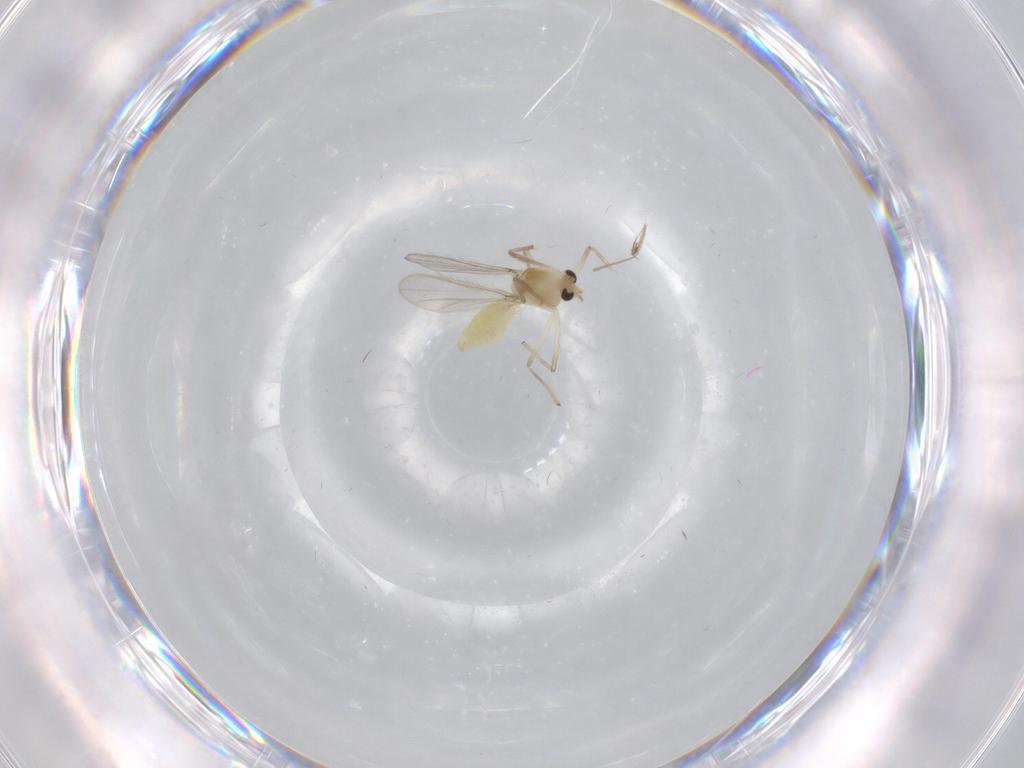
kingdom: Animalia
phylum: Arthropoda
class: Insecta
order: Diptera
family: Chironomidae
